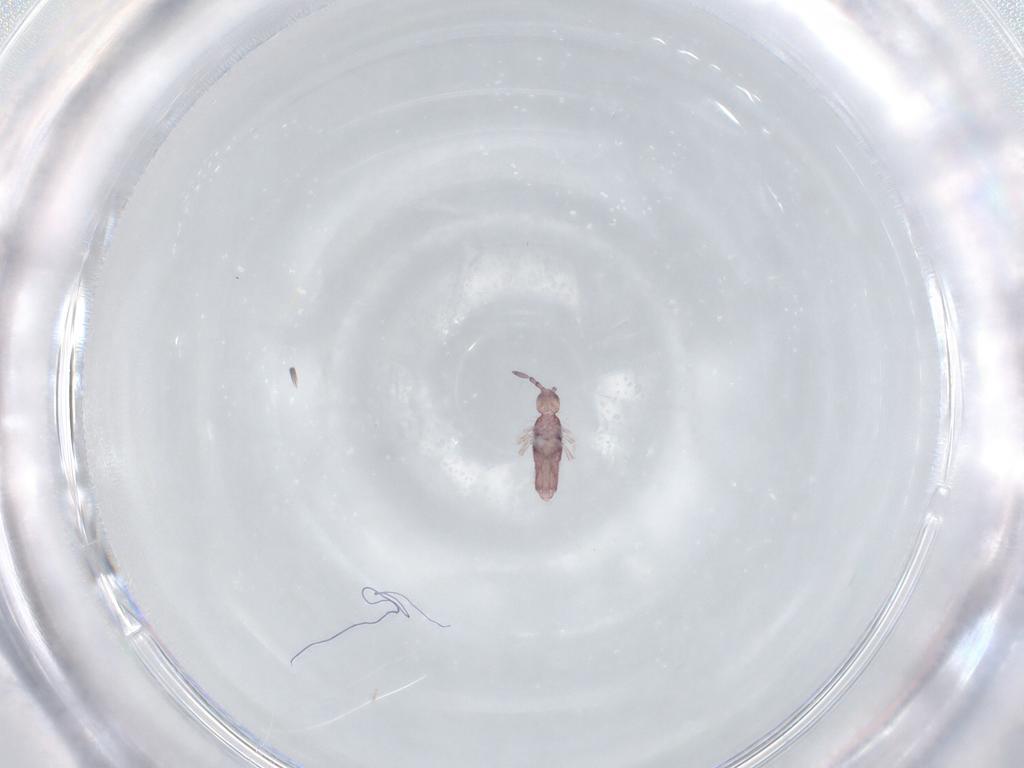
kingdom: Animalia
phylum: Arthropoda
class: Collembola
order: Entomobryomorpha
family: Entomobryidae
